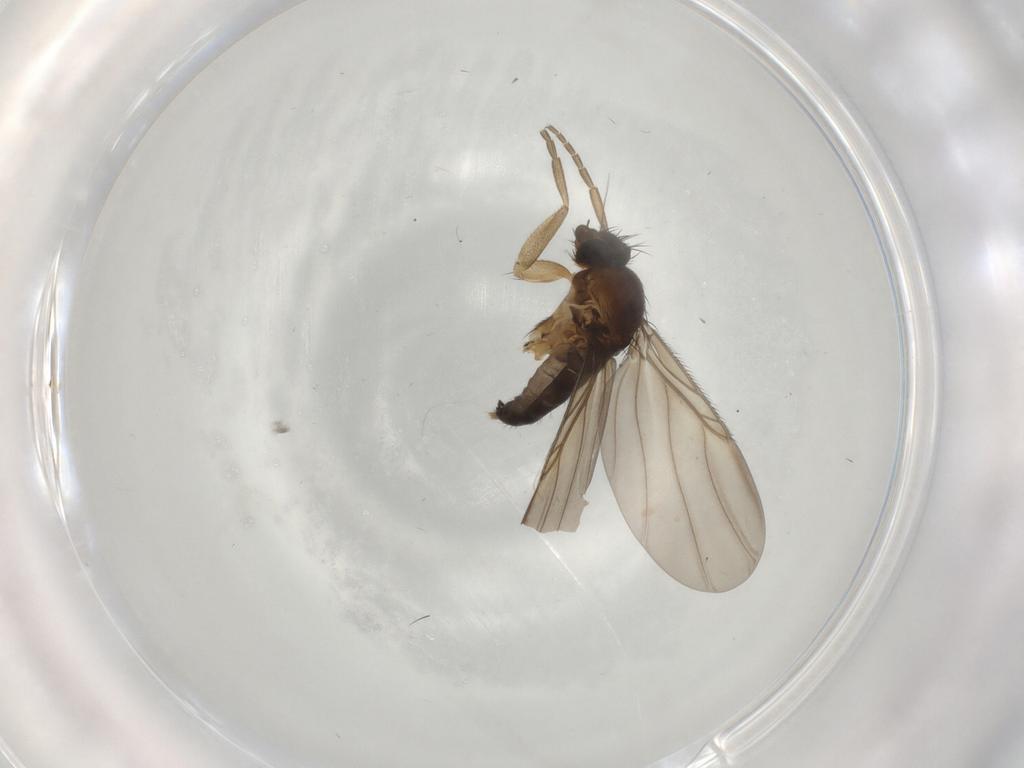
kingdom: Animalia
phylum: Arthropoda
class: Insecta
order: Diptera
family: Phoridae
